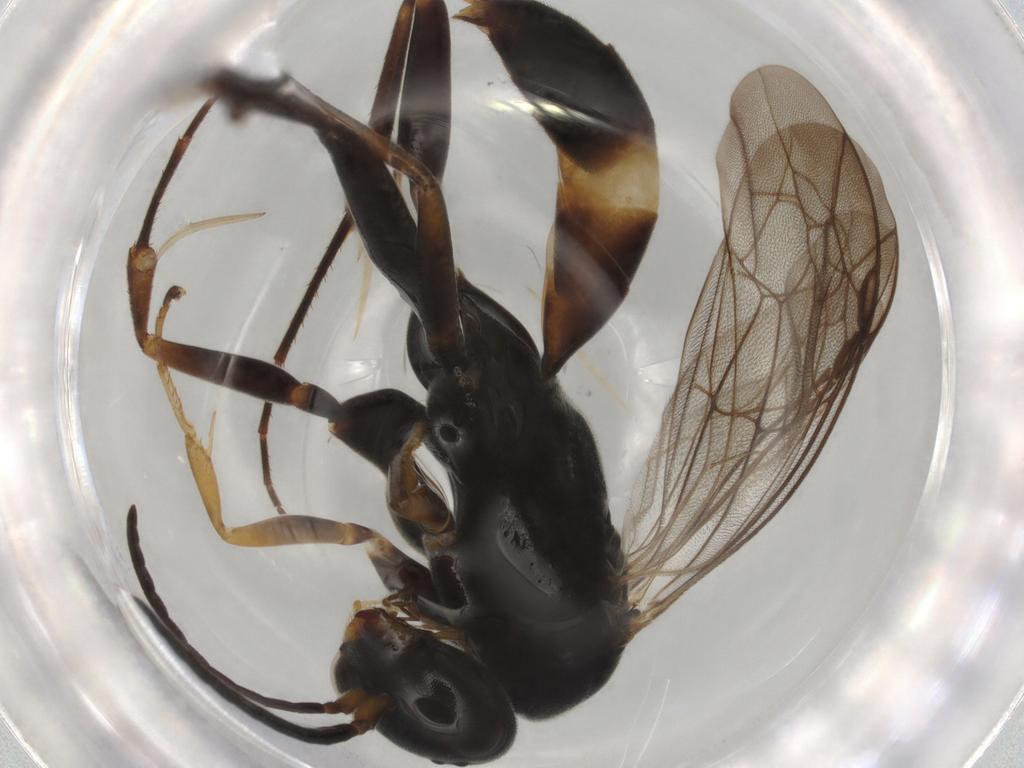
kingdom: Animalia
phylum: Arthropoda
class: Insecta
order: Hymenoptera
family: Pompilidae
